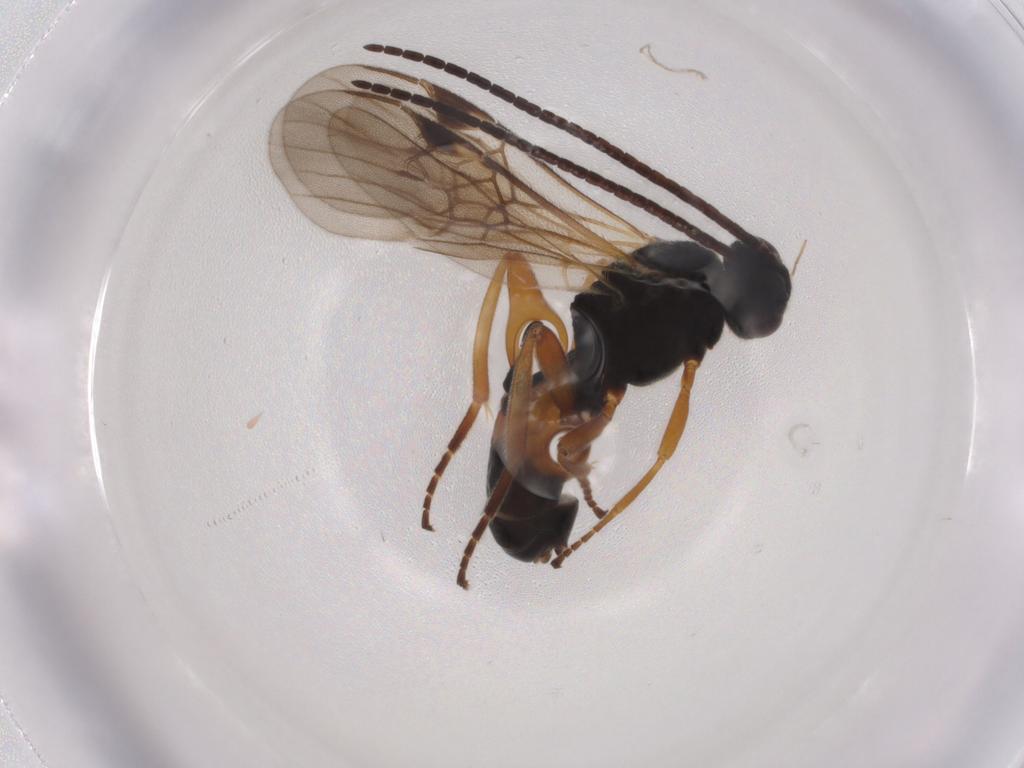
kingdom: Animalia
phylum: Arthropoda
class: Insecta
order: Hymenoptera
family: Braconidae
